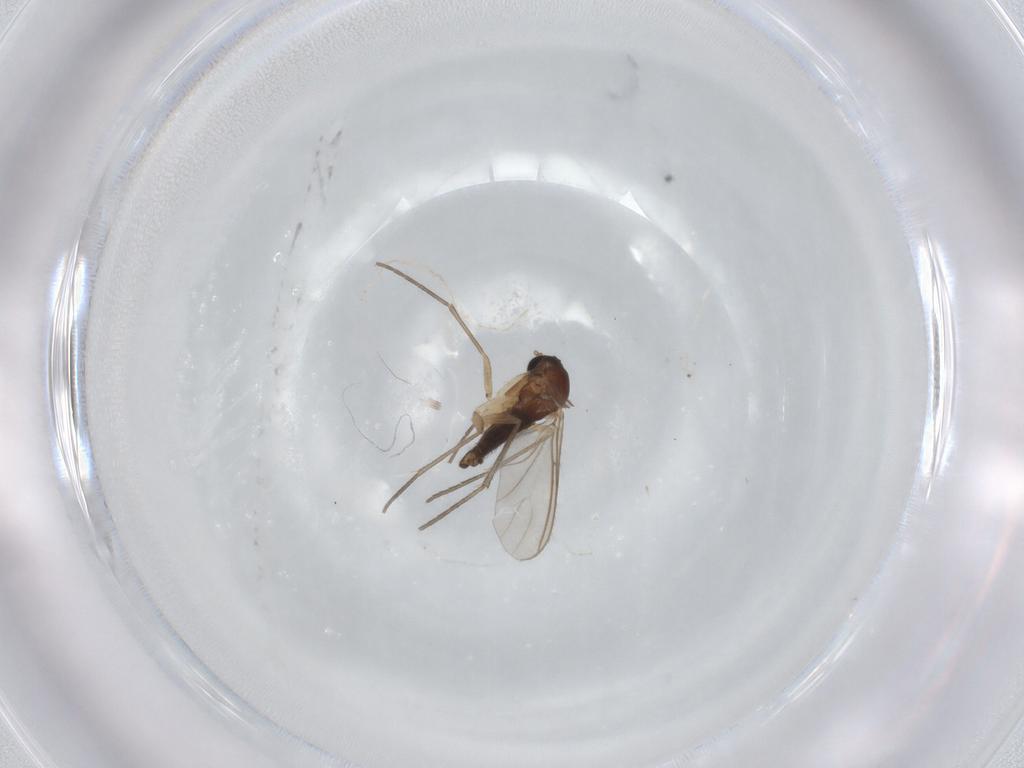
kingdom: Animalia
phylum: Arthropoda
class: Insecta
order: Diptera
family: Sciaridae
